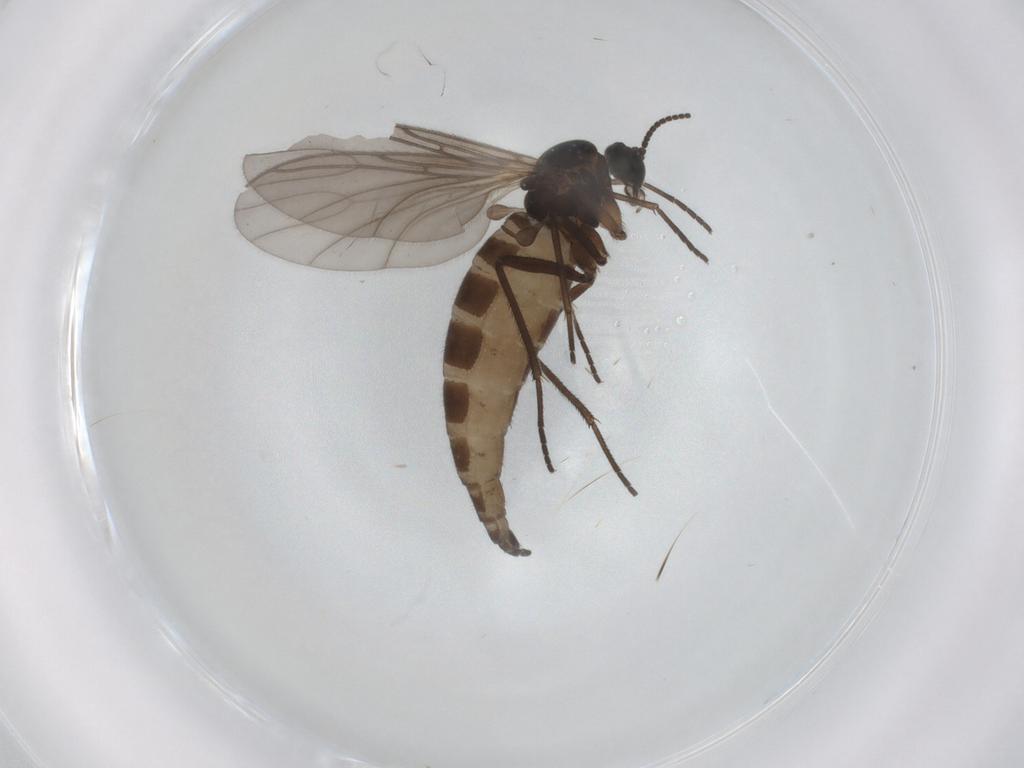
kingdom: Animalia
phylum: Arthropoda
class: Insecta
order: Diptera
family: Sciaridae
